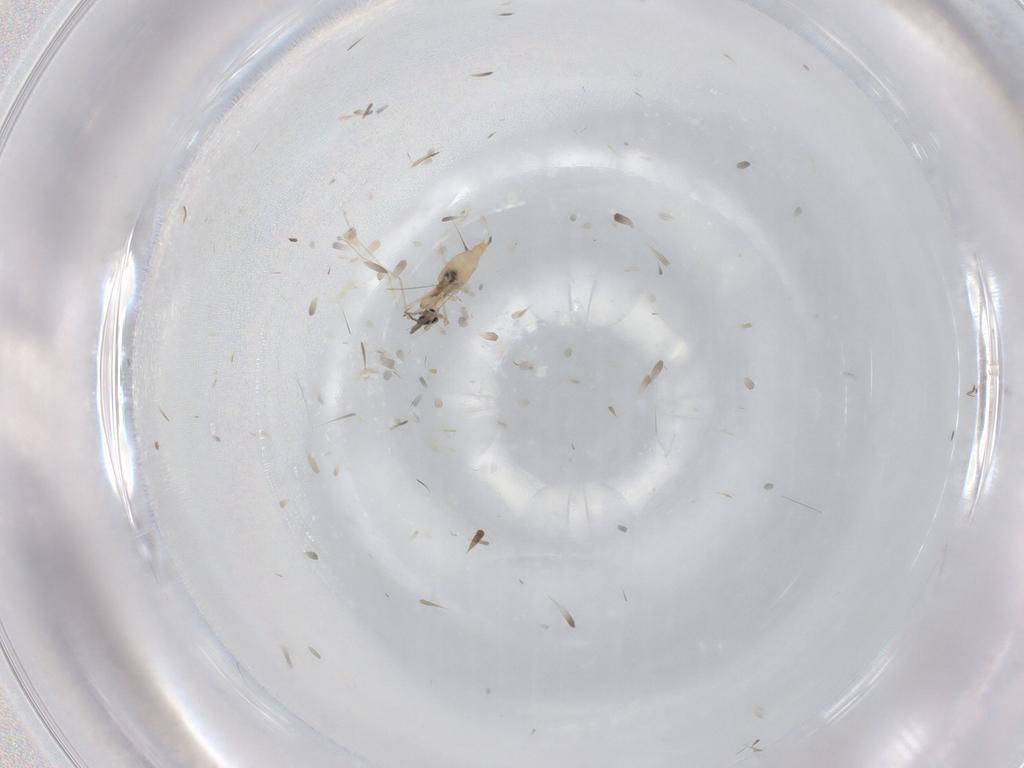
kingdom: Animalia
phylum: Arthropoda
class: Insecta
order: Diptera
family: Cecidomyiidae
